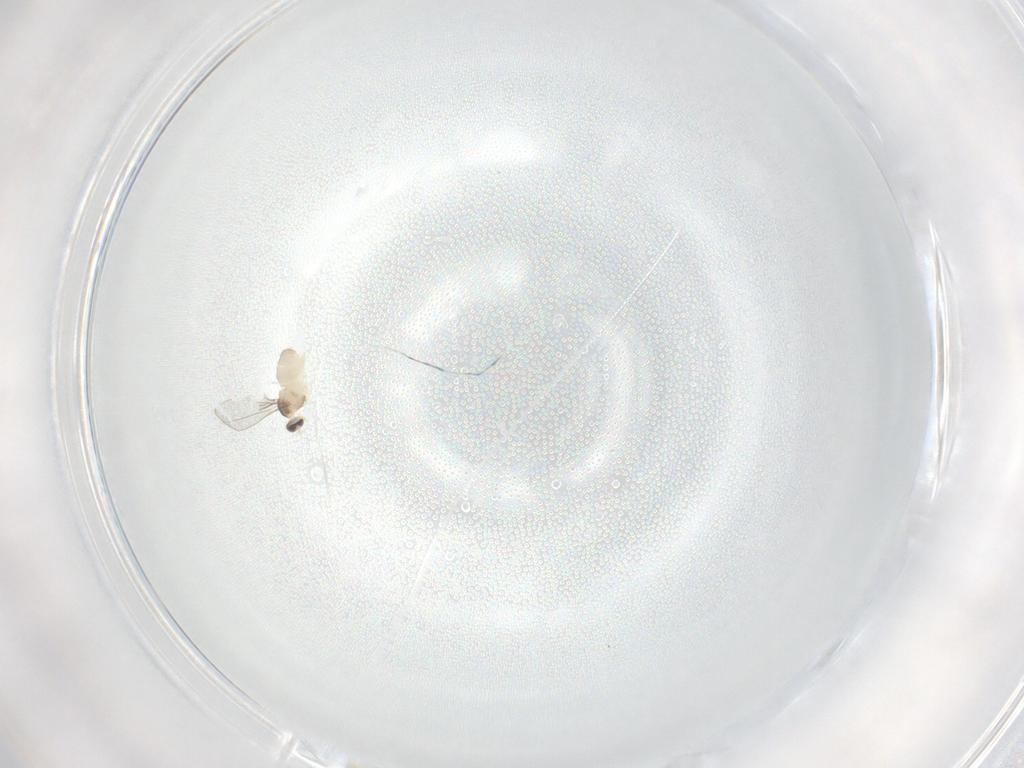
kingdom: Animalia
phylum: Arthropoda
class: Insecta
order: Diptera
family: Cecidomyiidae
